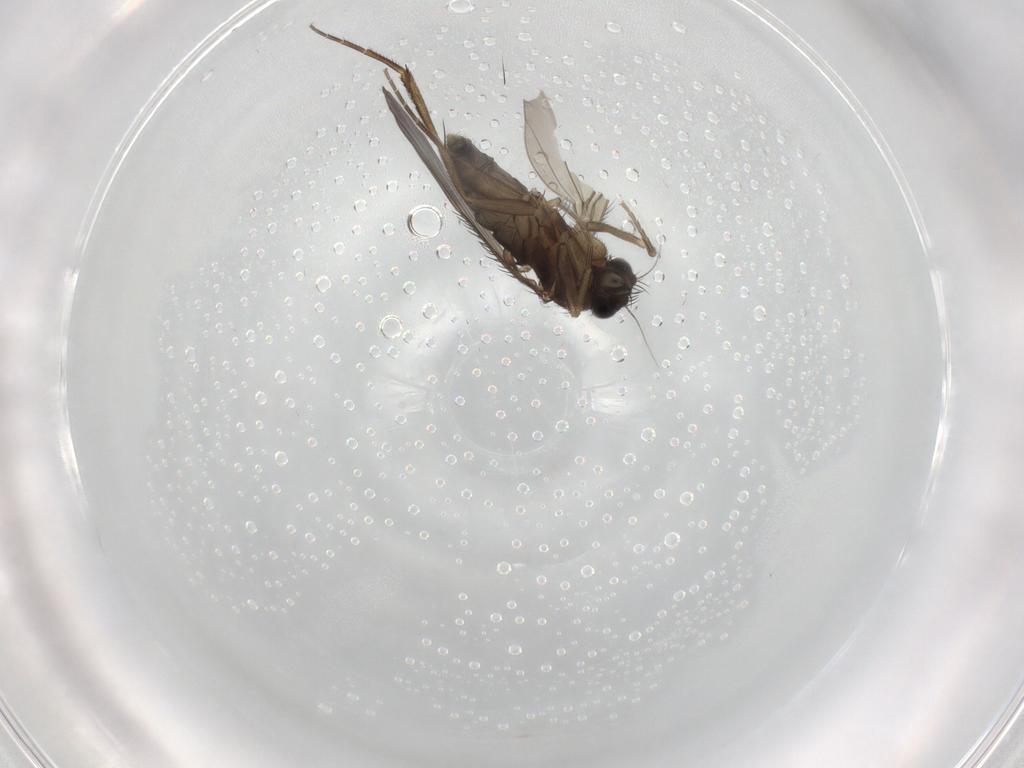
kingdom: Animalia
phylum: Arthropoda
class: Insecta
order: Diptera
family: Phoridae
